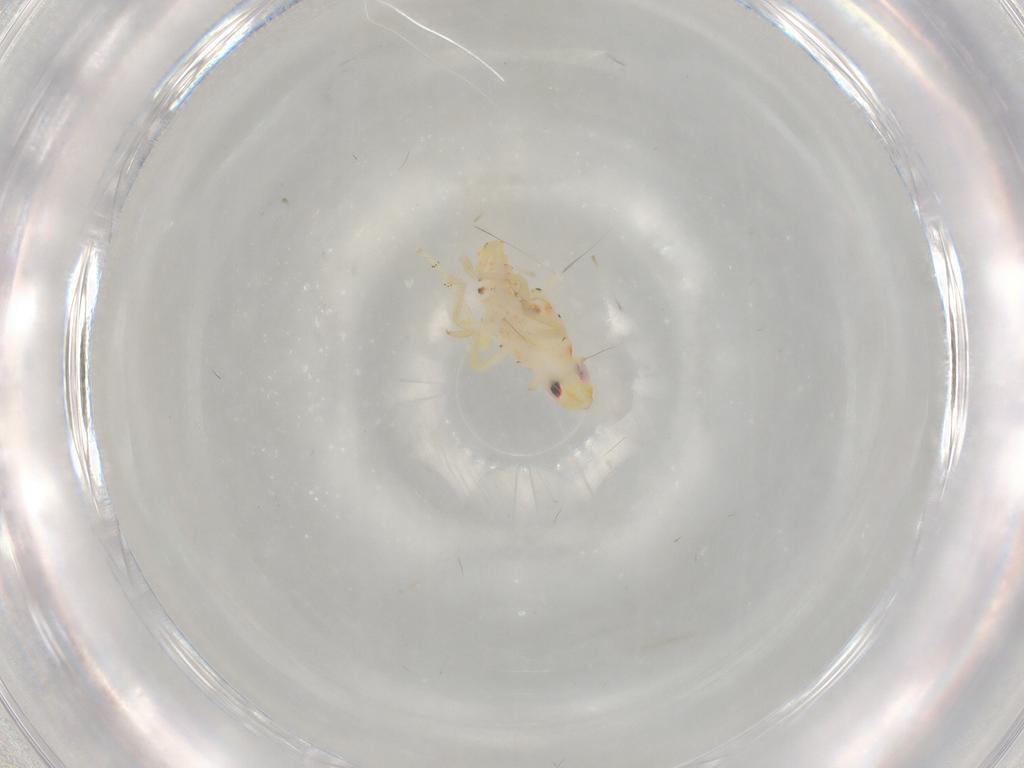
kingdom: Animalia
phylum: Arthropoda
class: Insecta
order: Hemiptera
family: Tropiduchidae
